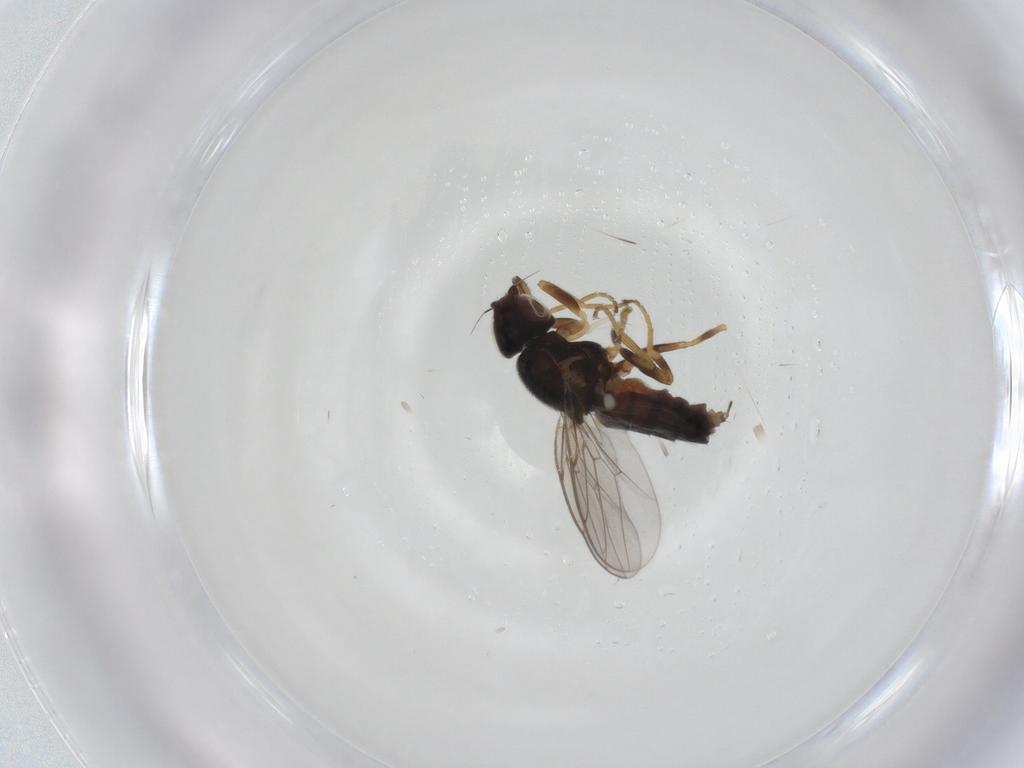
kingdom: Animalia
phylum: Arthropoda
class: Insecta
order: Diptera
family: Chloropidae
